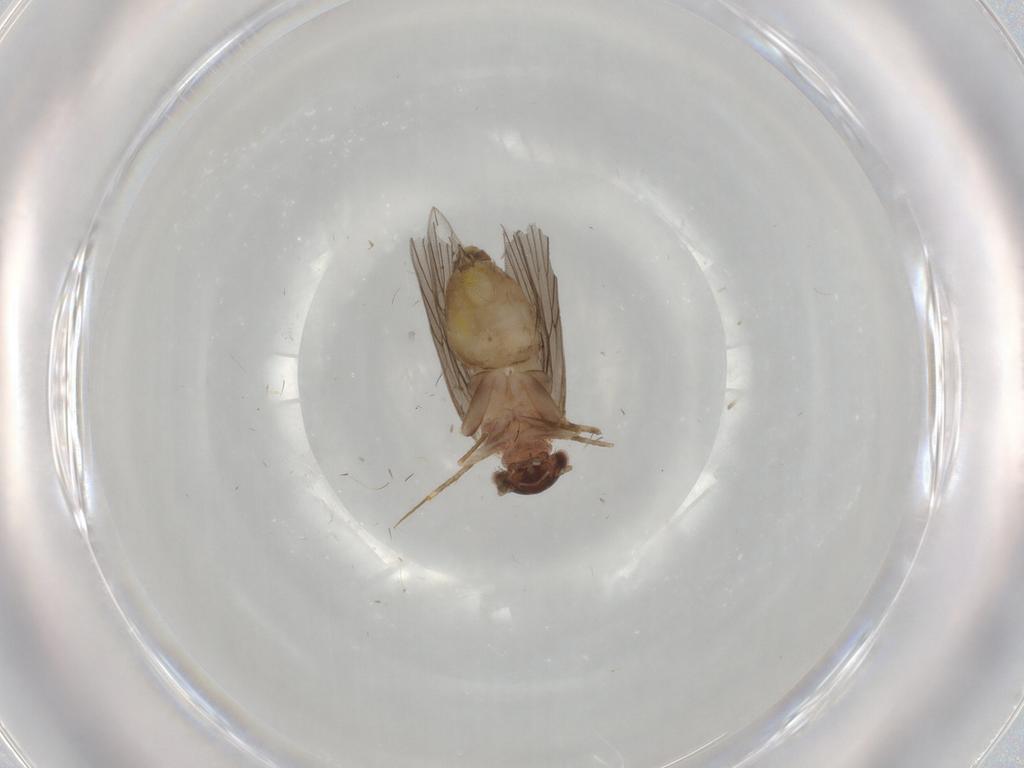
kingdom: Animalia
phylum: Arthropoda
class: Insecta
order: Psocodea
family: Lepidopsocidae
